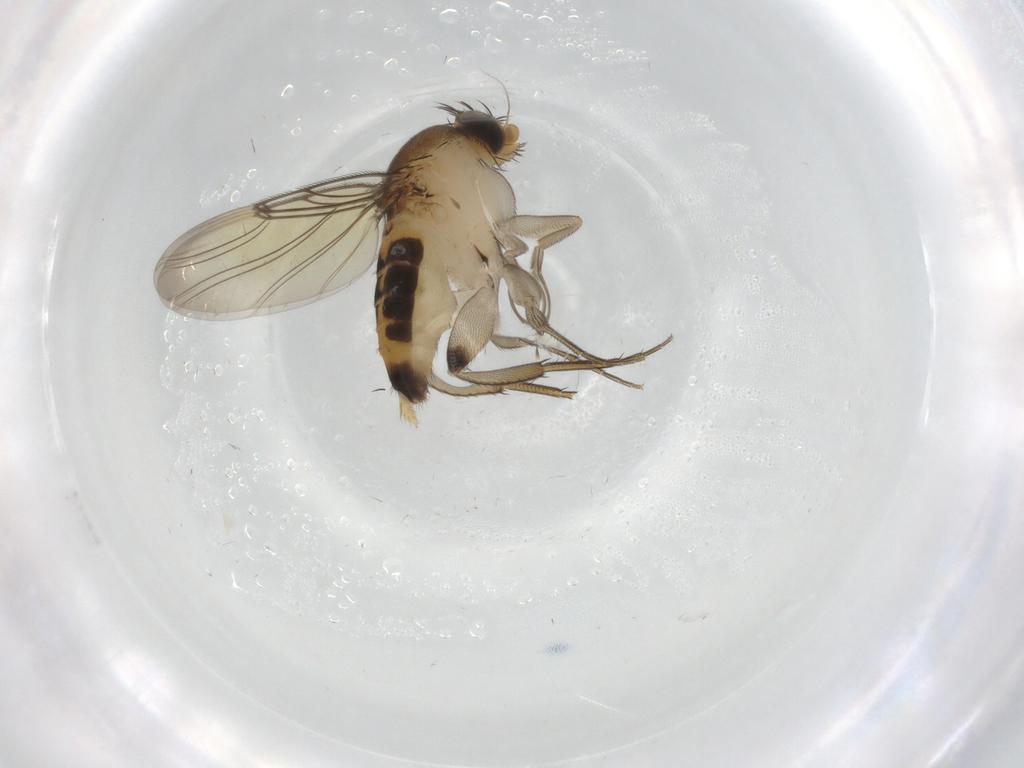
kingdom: Animalia
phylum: Arthropoda
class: Insecta
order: Diptera
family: Phoridae
